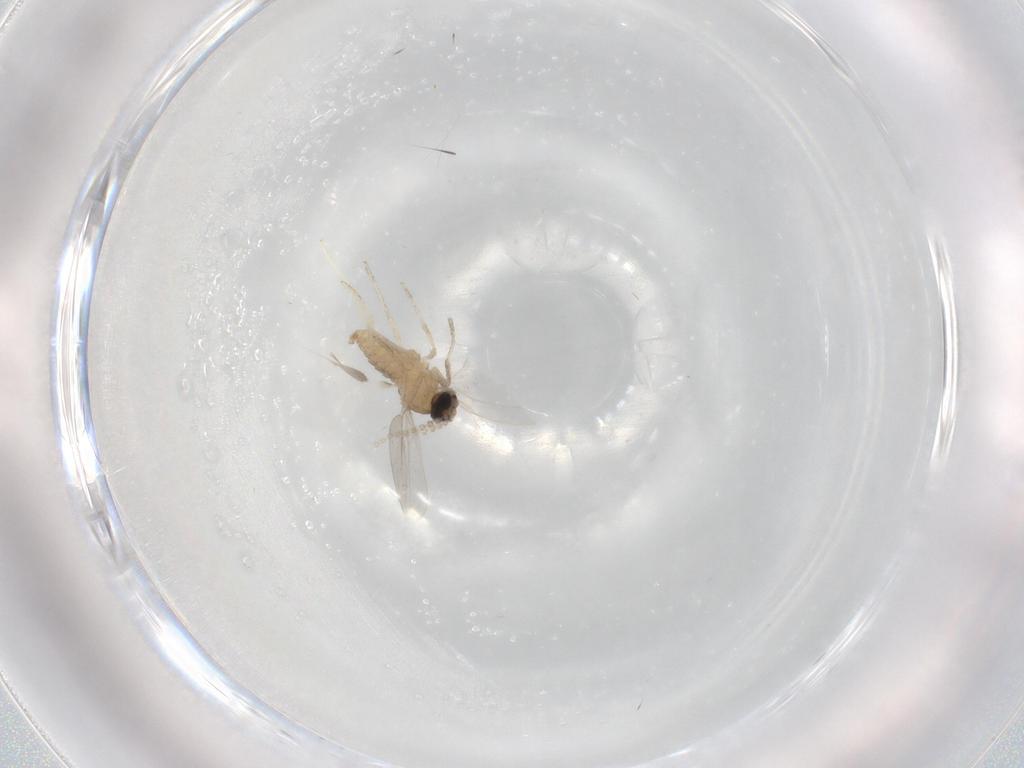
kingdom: Animalia
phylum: Arthropoda
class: Insecta
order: Diptera
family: Cecidomyiidae
